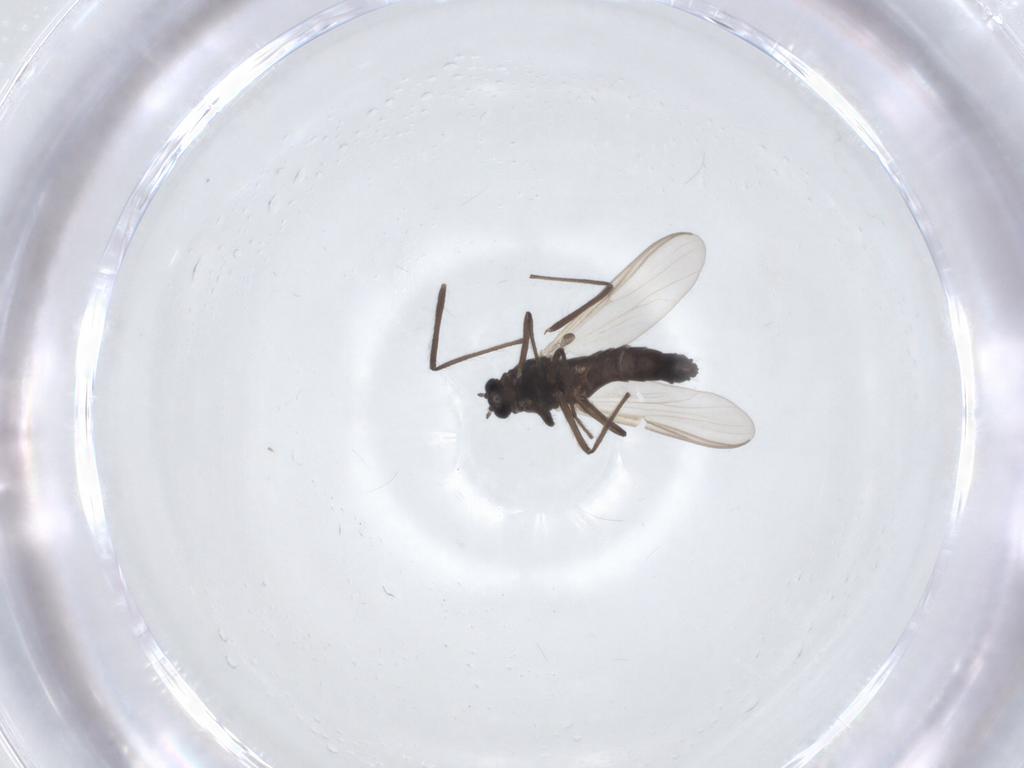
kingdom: Animalia
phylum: Arthropoda
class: Insecta
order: Diptera
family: Chironomidae
